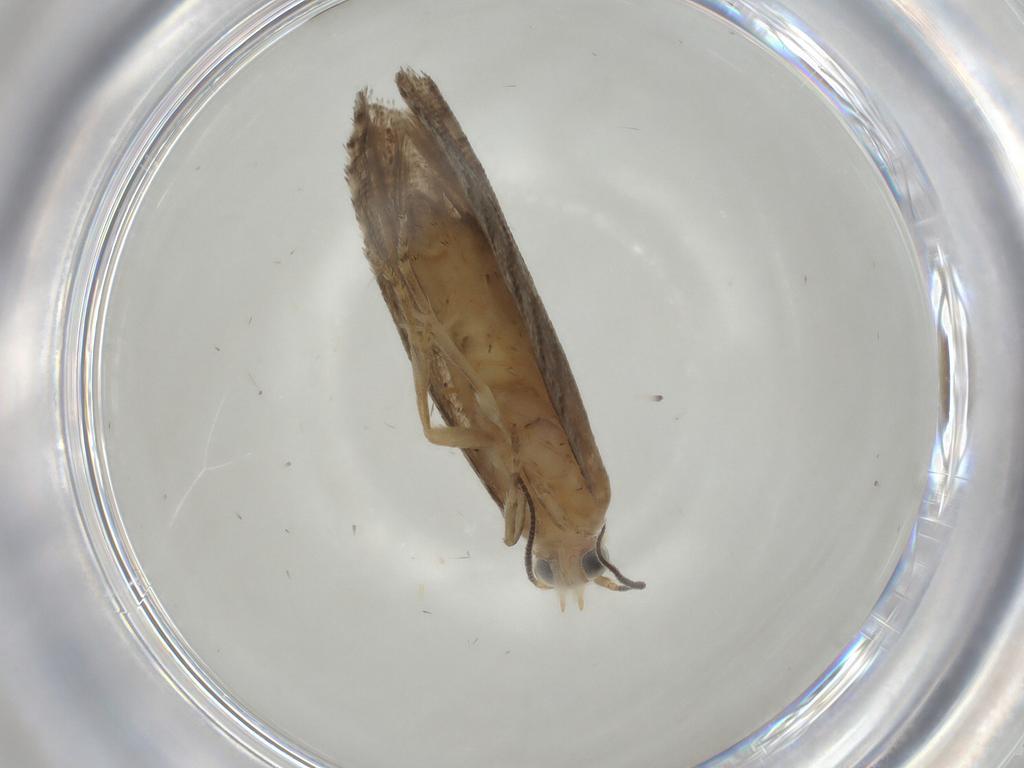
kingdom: Animalia
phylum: Arthropoda
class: Insecta
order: Lepidoptera
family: Tortricidae
